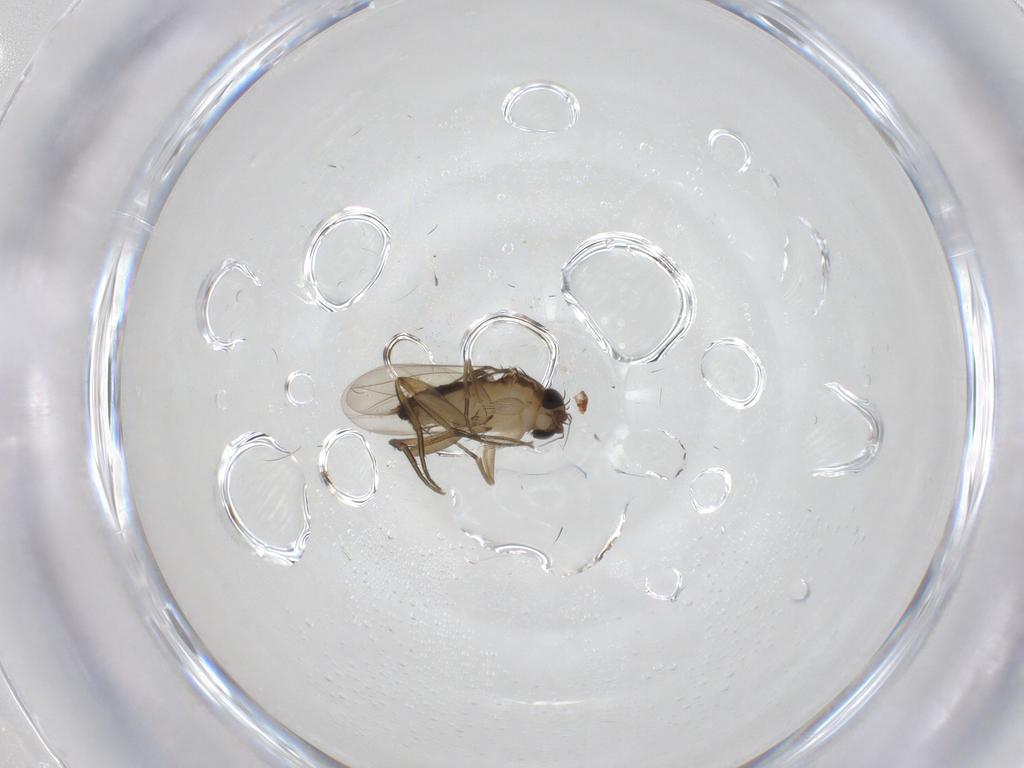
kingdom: Animalia
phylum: Arthropoda
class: Insecta
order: Diptera
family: Phoridae
